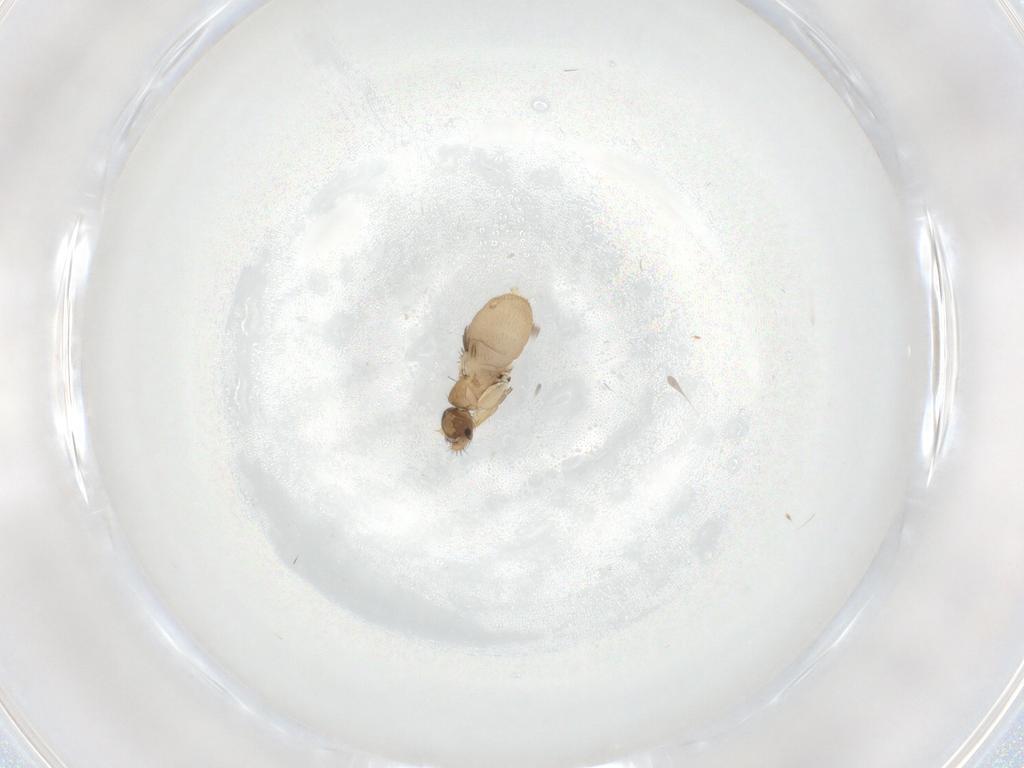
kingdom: Animalia
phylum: Arthropoda
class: Insecta
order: Diptera
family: Phoridae
